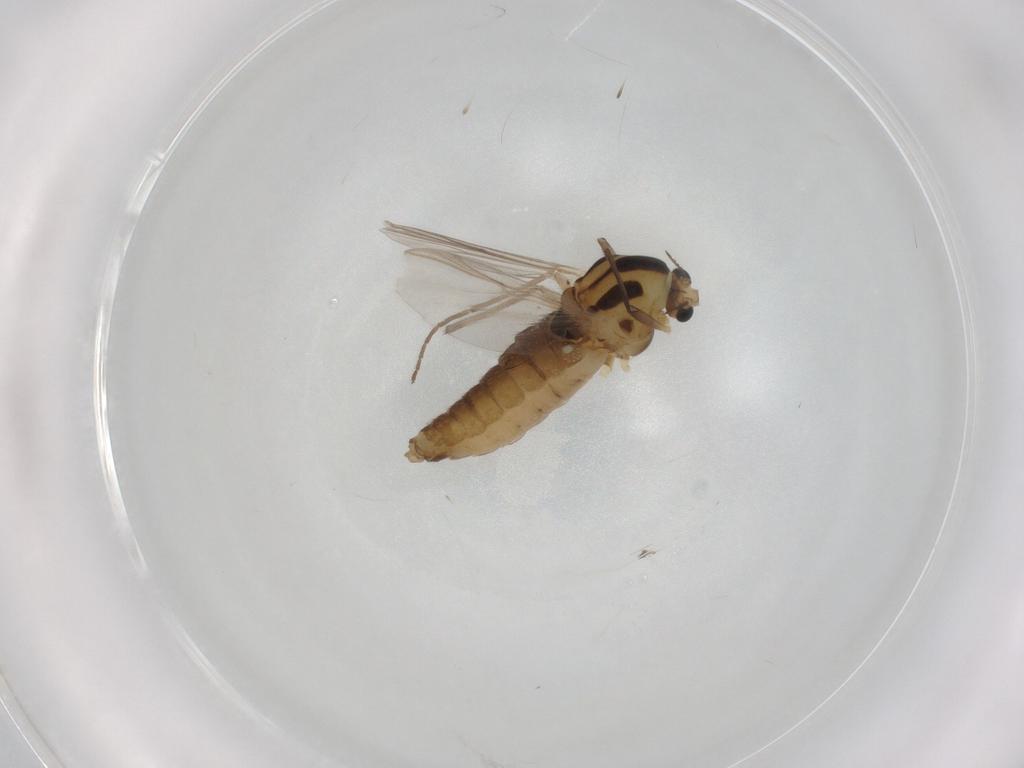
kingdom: Animalia
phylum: Arthropoda
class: Insecta
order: Diptera
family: Chironomidae
